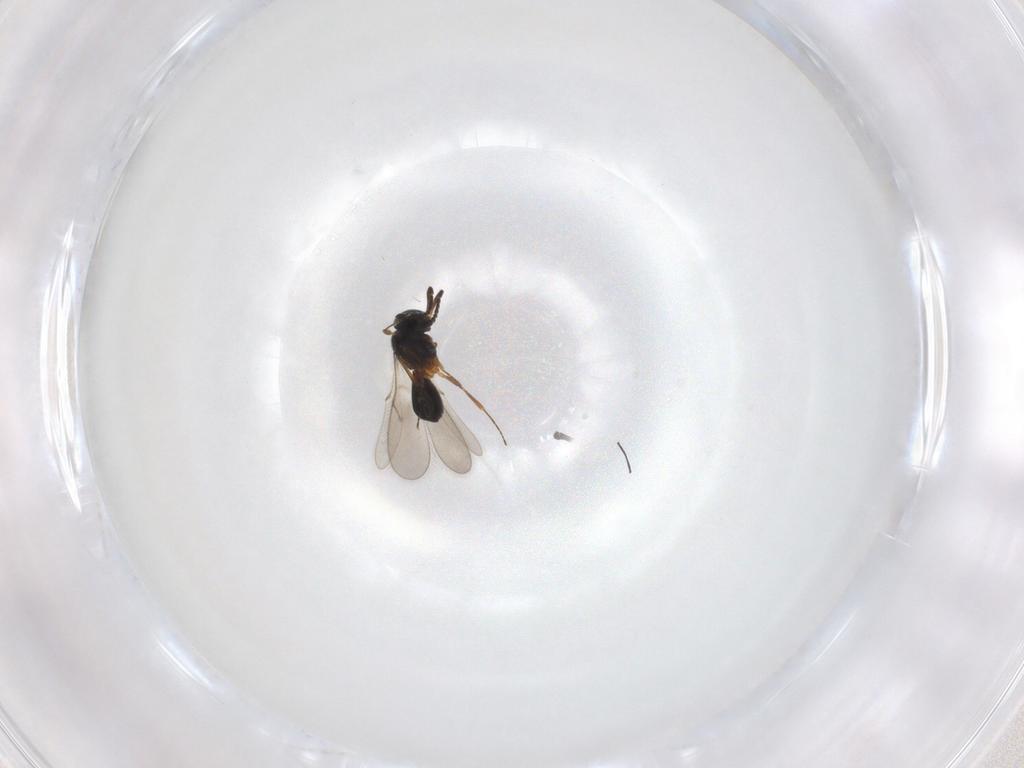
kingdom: Animalia
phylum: Arthropoda
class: Insecta
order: Hymenoptera
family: Scelionidae
